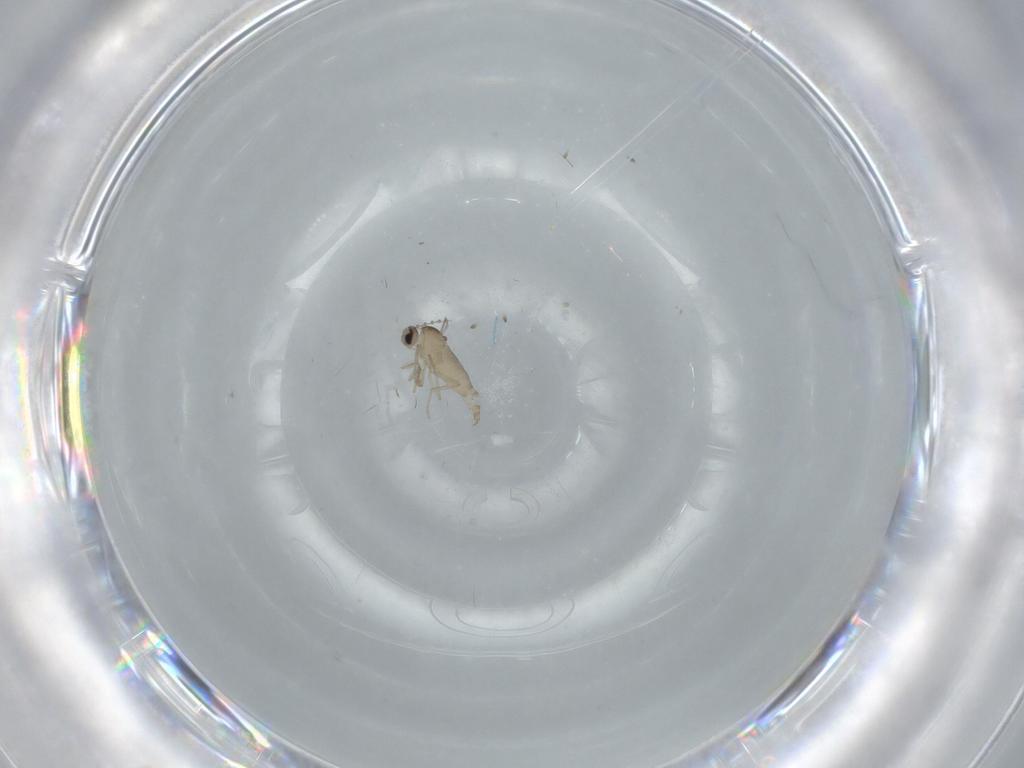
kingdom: Animalia
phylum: Arthropoda
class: Insecta
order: Diptera
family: Cecidomyiidae
